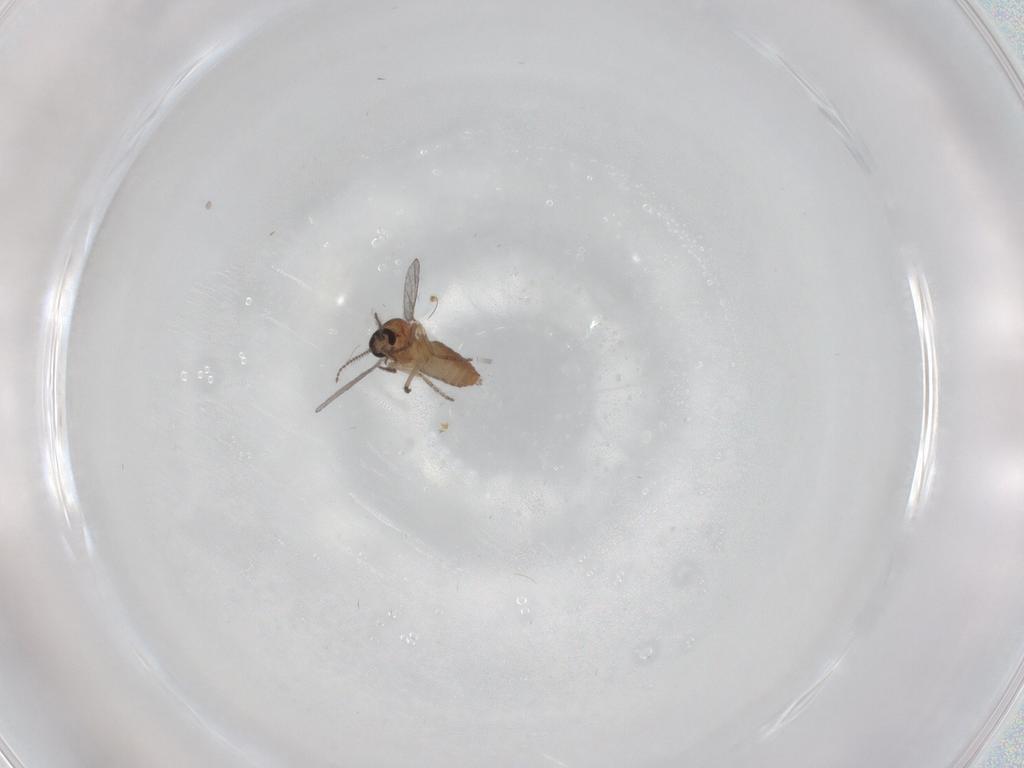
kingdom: Animalia
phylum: Arthropoda
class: Insecta
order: Diptera
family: Ceratopogonidae
